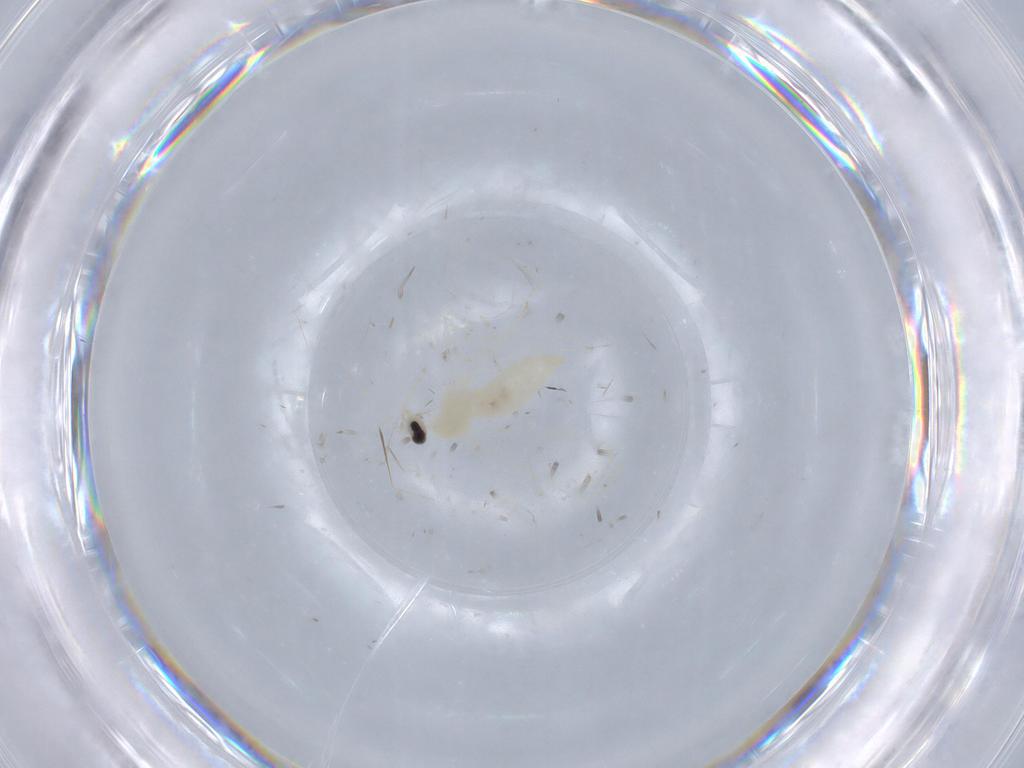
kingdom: Animalia
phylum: Arthropoda
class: Insecta
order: Diptera
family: Cecidomyiidae
